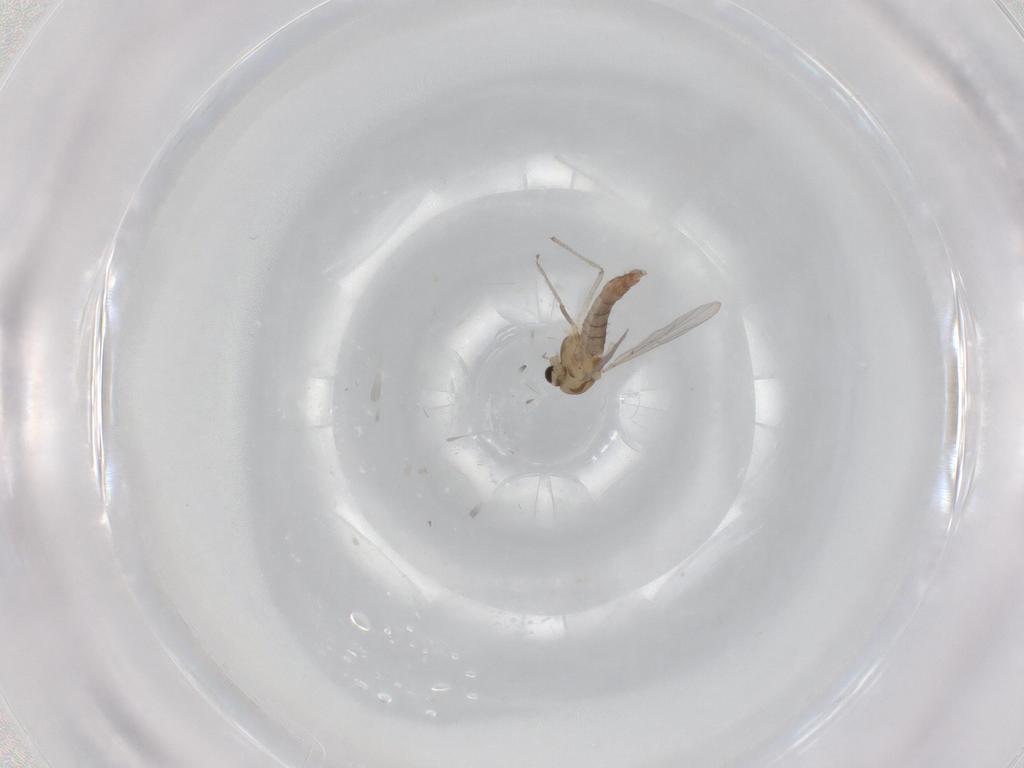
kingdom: Animalia
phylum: Arthropoda
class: Insecta
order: Diptera
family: Chironomidae
